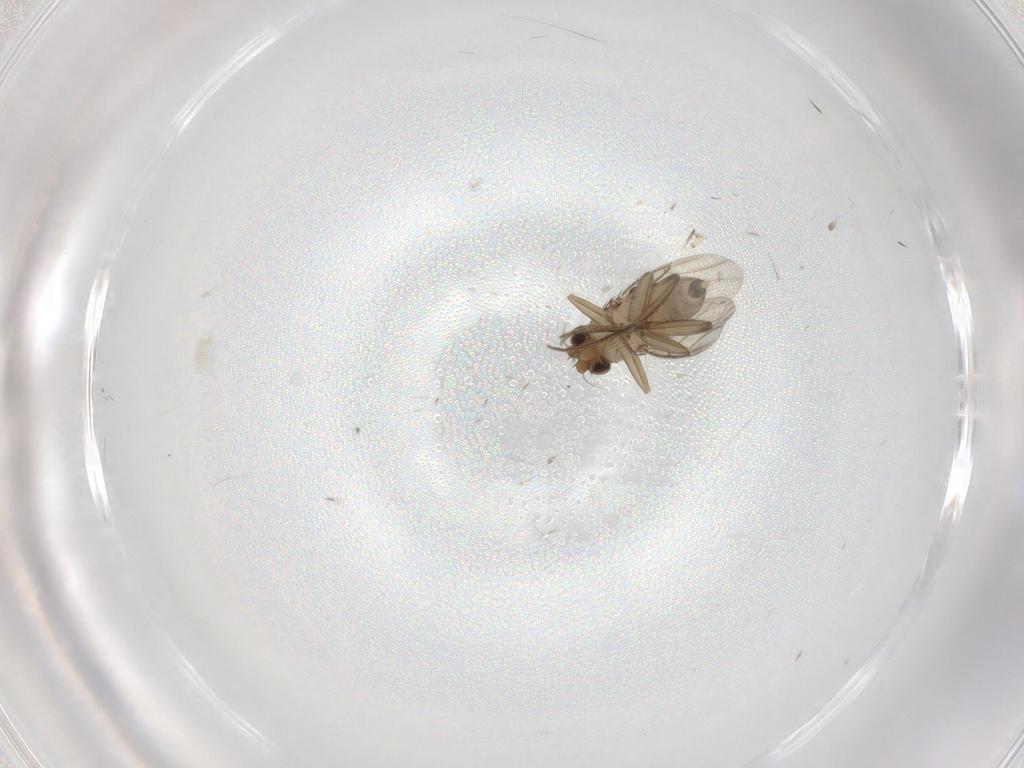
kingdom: Animalia
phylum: Arthropoda
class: Insecta
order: Diptera
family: Phoridae
